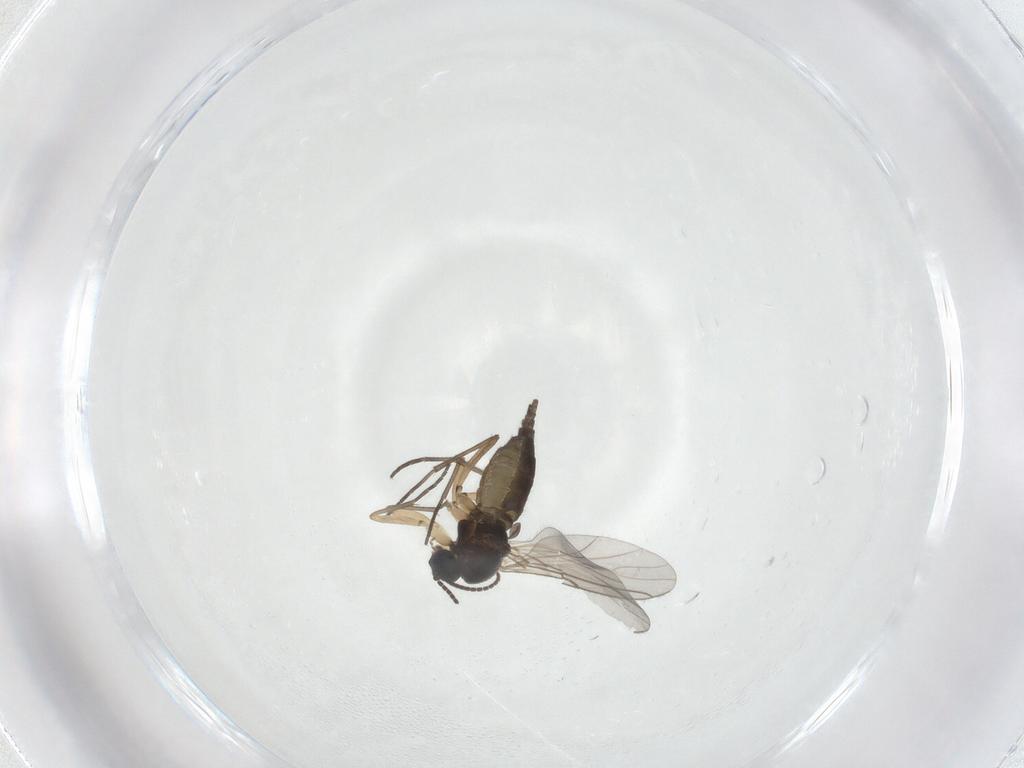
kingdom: Animalia
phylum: Arthropoda
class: Insecta
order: Diptera
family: Sciaridae
